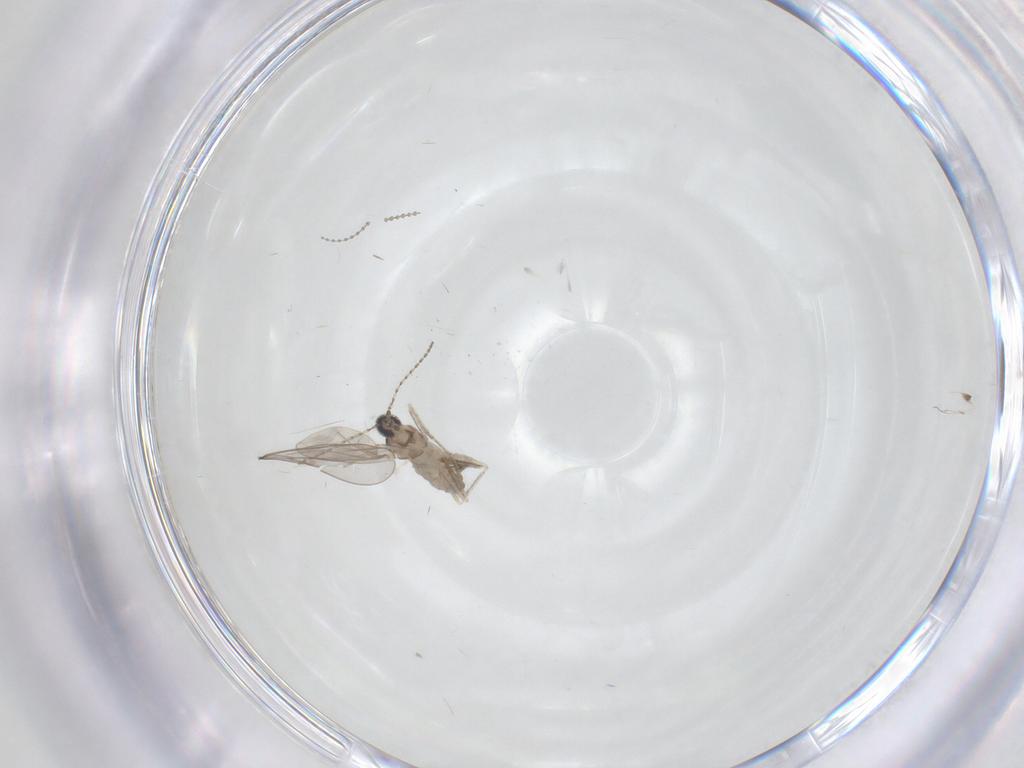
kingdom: Animalia
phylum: Arthropoda
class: Insecta
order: Diptera
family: Cecidomyiidae
